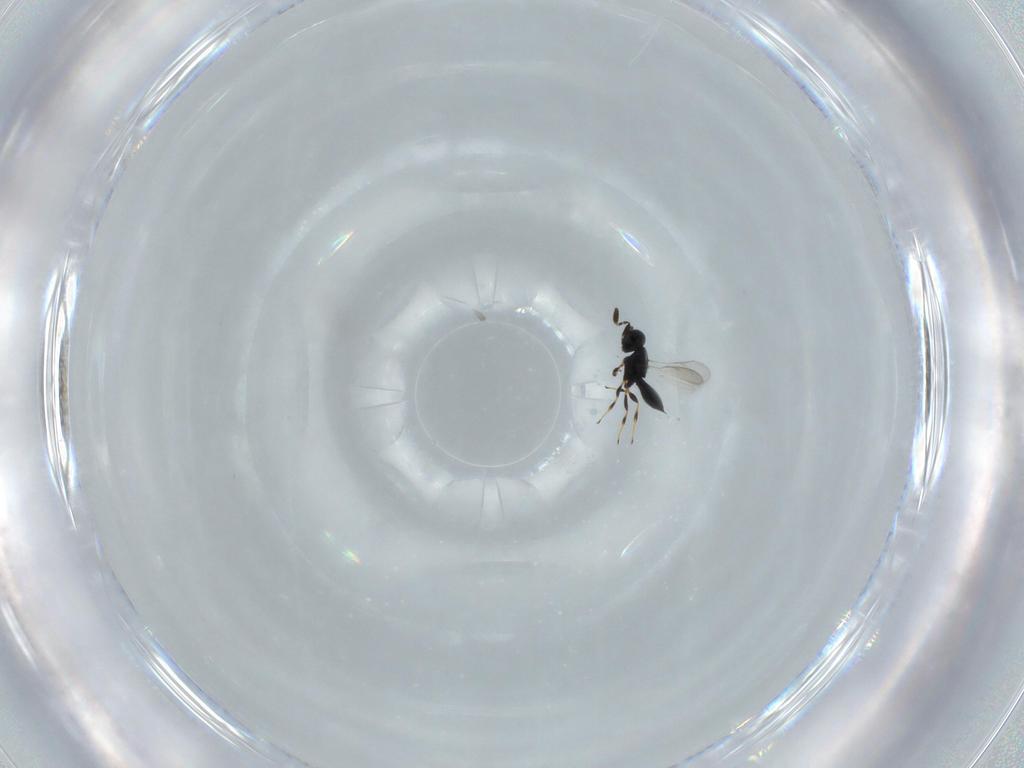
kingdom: Animalia
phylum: Arthropoda
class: Insecta
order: Hymenoptera
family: Scelionidae
